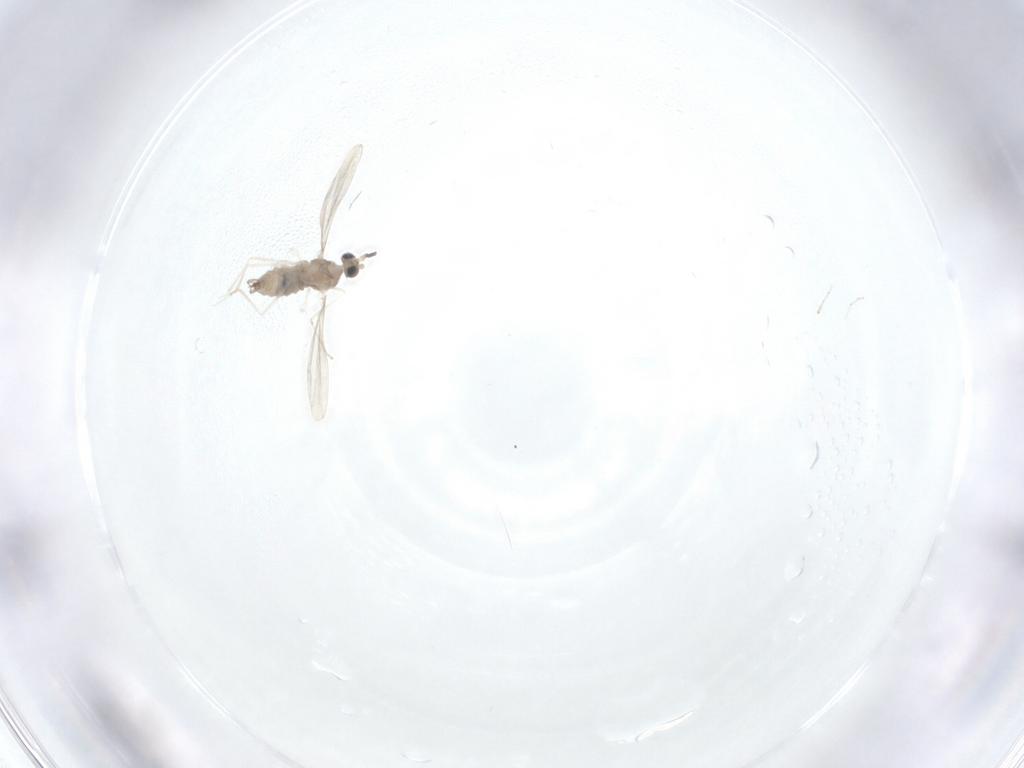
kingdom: Animalia
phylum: Arthropoda
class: Insecta
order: Diptera
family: Cecidomyiidae
